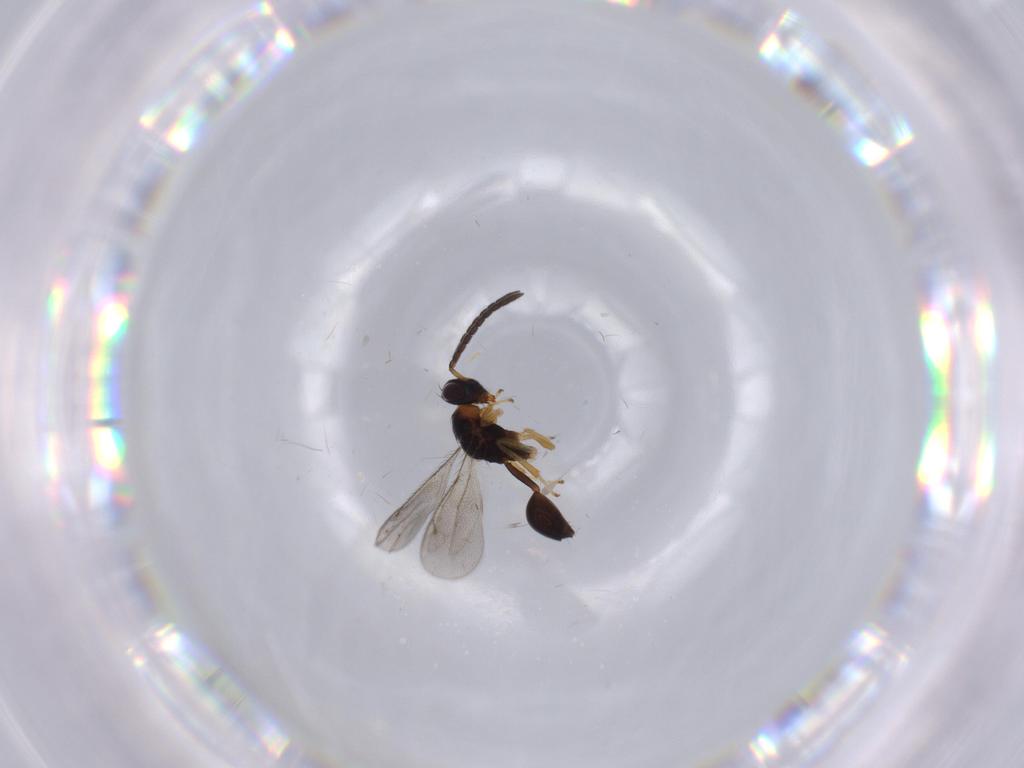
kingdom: Animalia
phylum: Arthropoda
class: Insecta
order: Hymenoptera
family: Diparidae
